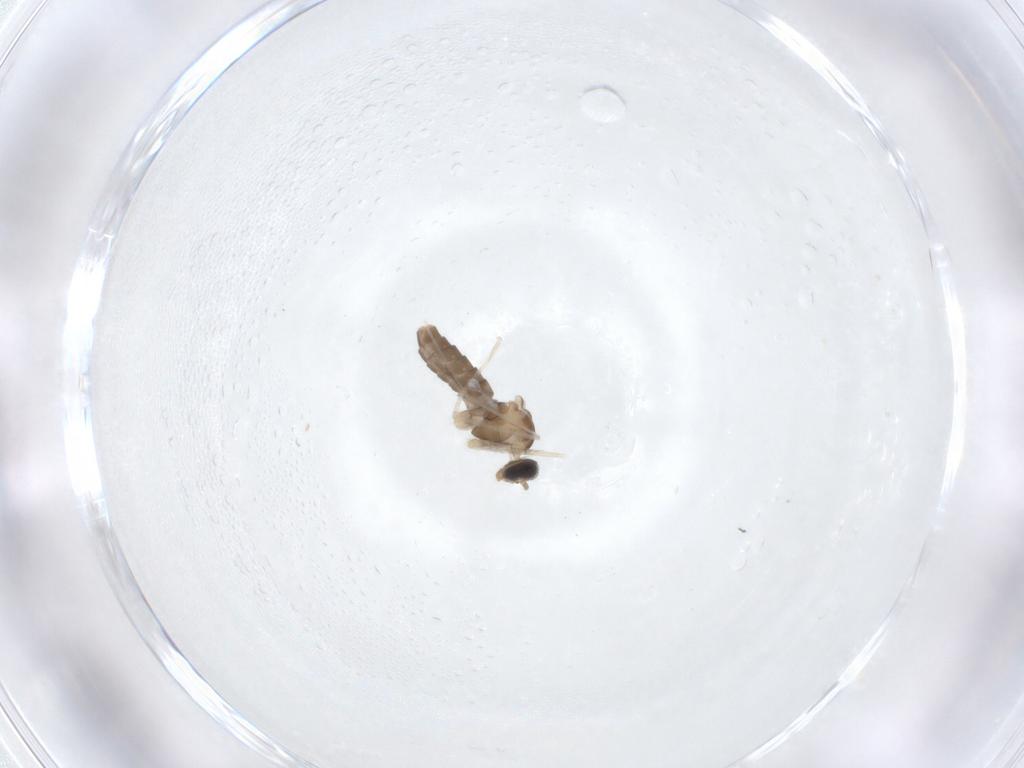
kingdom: Animalia
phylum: Arthropoda
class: Insecta
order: Diptera
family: Cecidomyiidae
